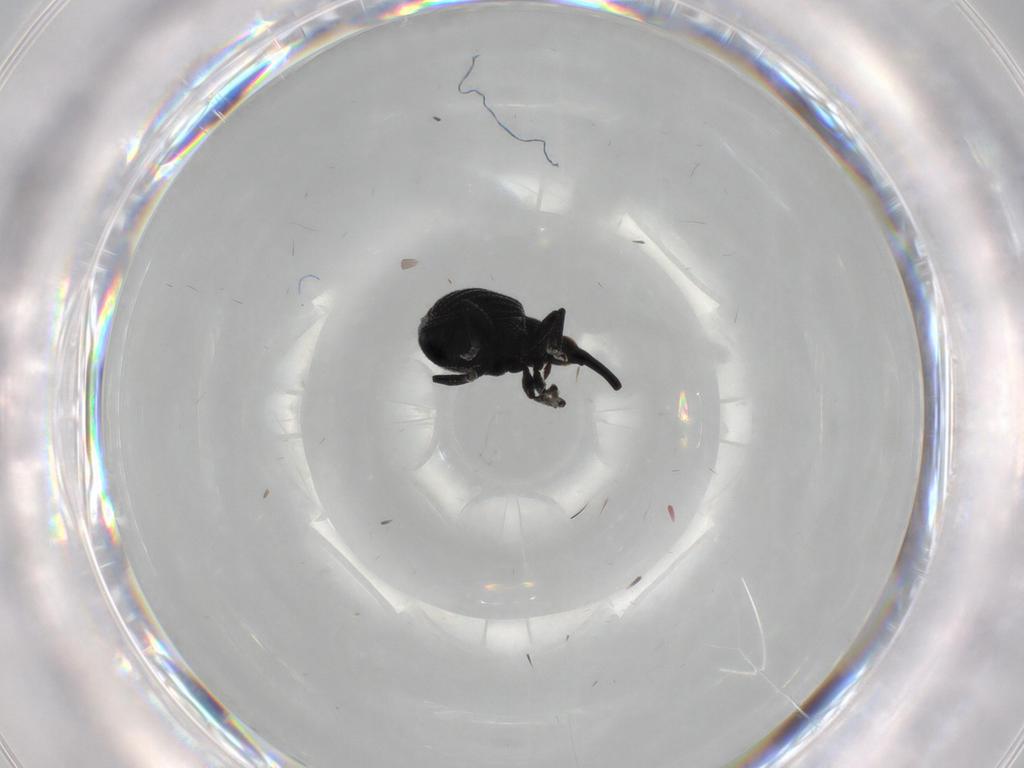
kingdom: Animalia
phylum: Arthropoda
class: Insecta
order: Coleoptera
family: Brentidae
